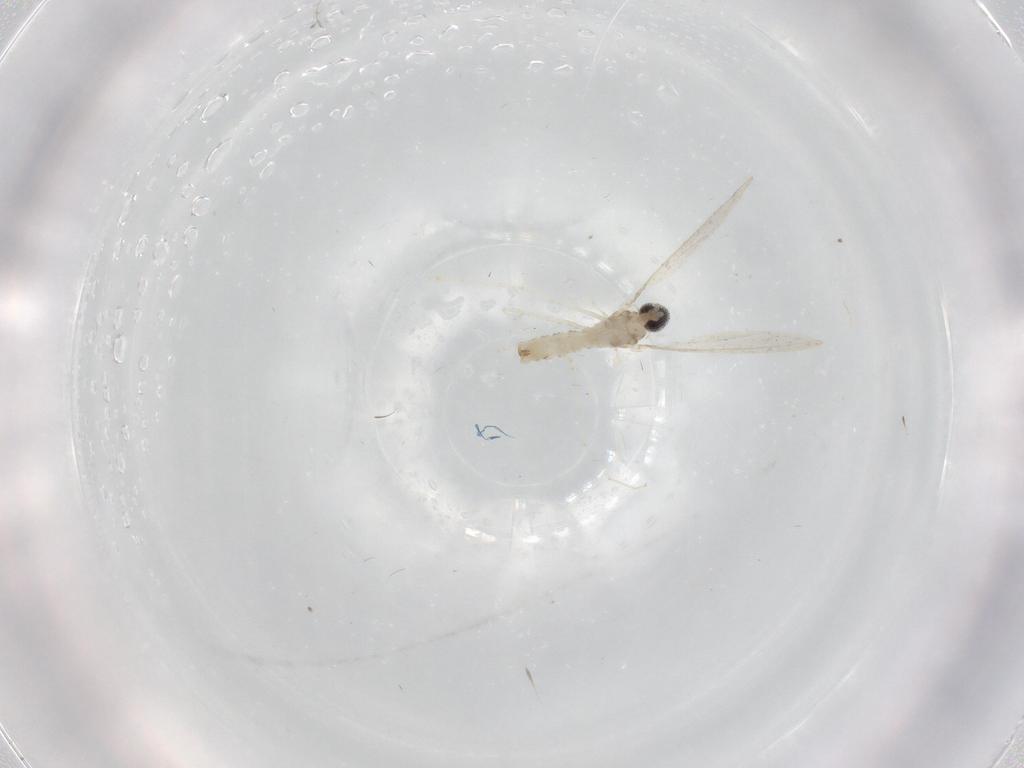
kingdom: Animalia
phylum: Arthropoda
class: Insecta
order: Diptera
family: Cecidomyiidae
